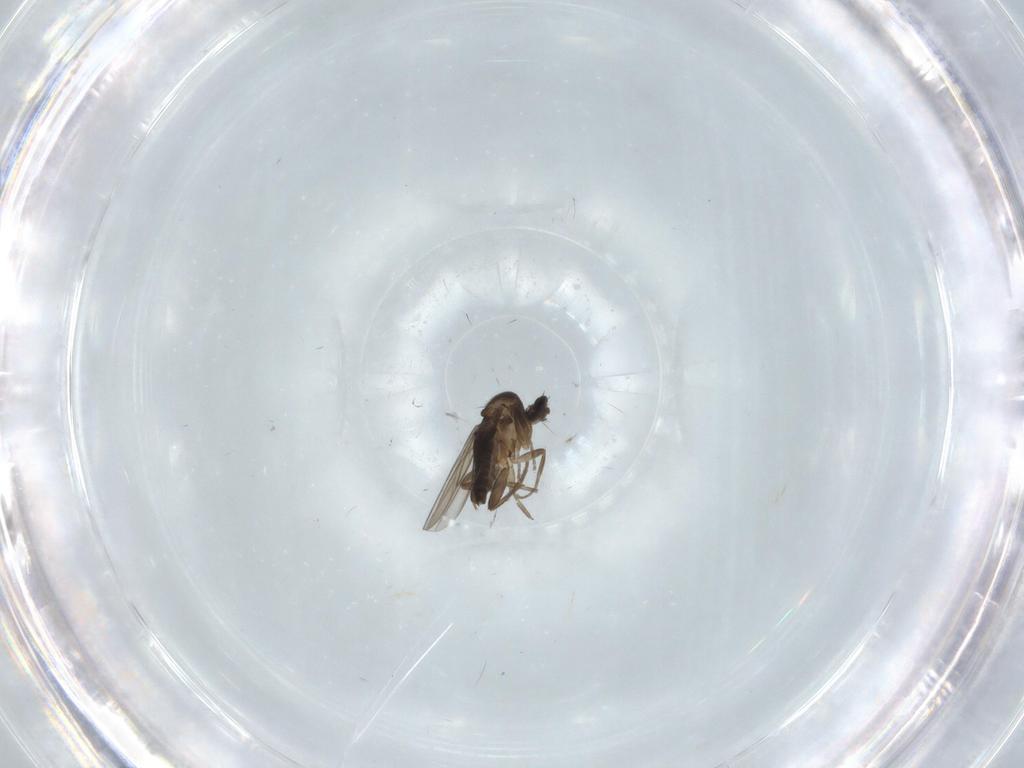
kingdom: Animalia
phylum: Arthropoda
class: Insecta
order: Diptera
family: Phoridae
